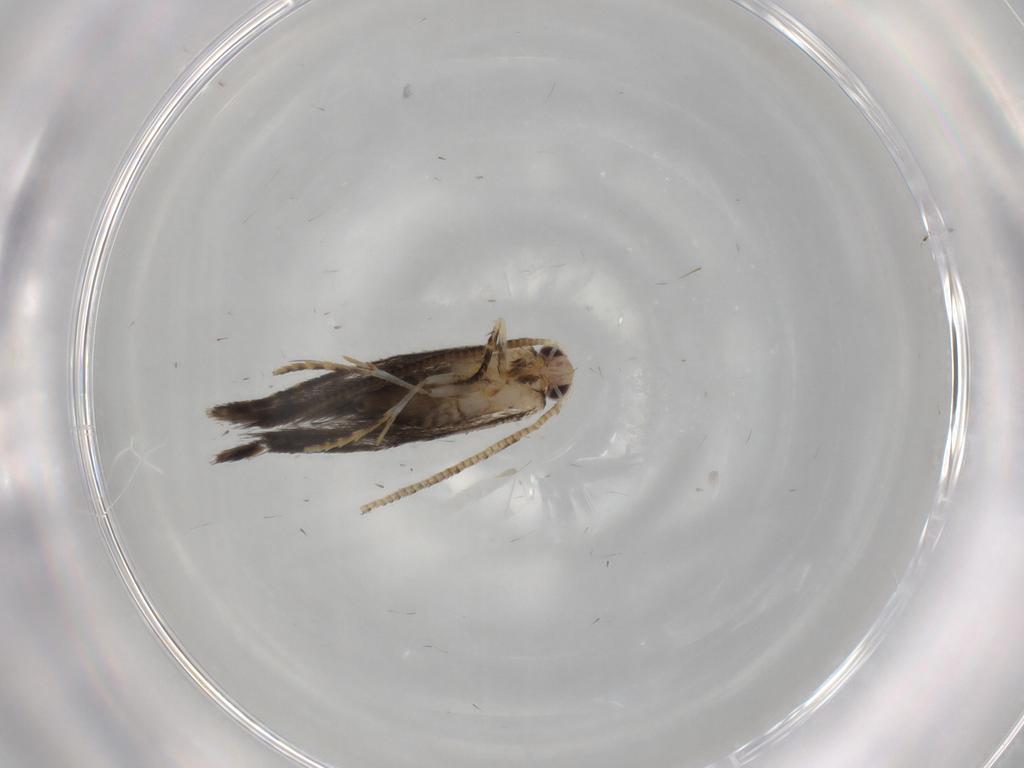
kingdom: Animalia
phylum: Arthropoda
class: Insecta
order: Lepidoptera
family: Tineidae
